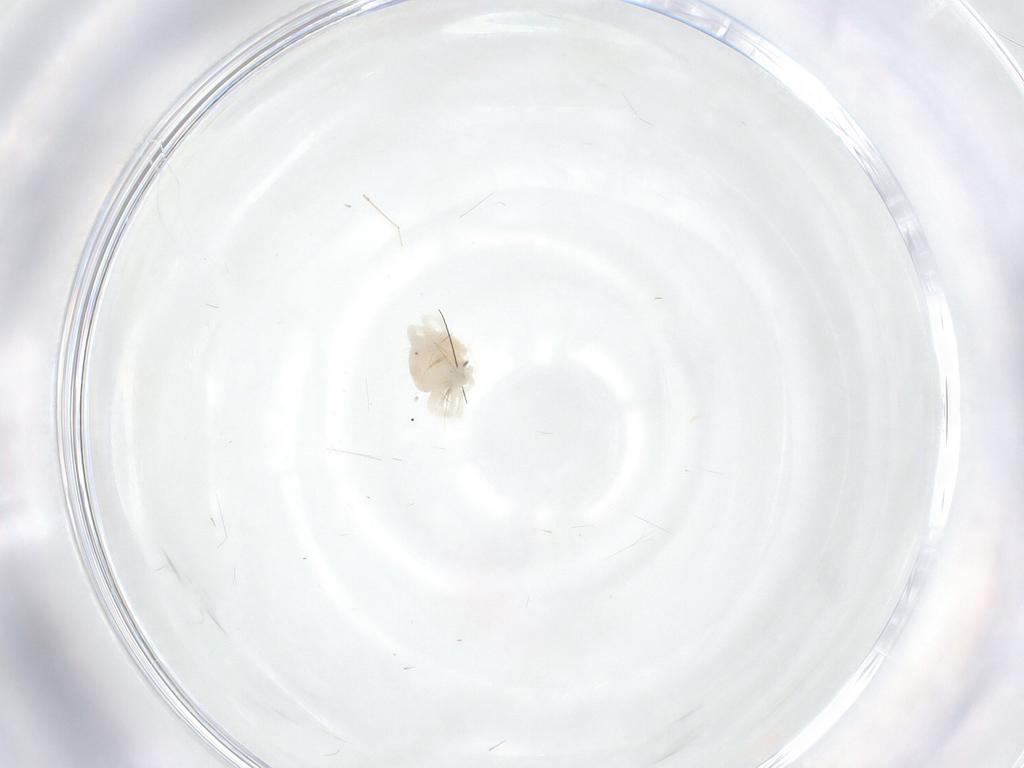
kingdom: Animalia
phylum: Arthropoda
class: Arachnida
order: Trombidiformes
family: Anystidae
